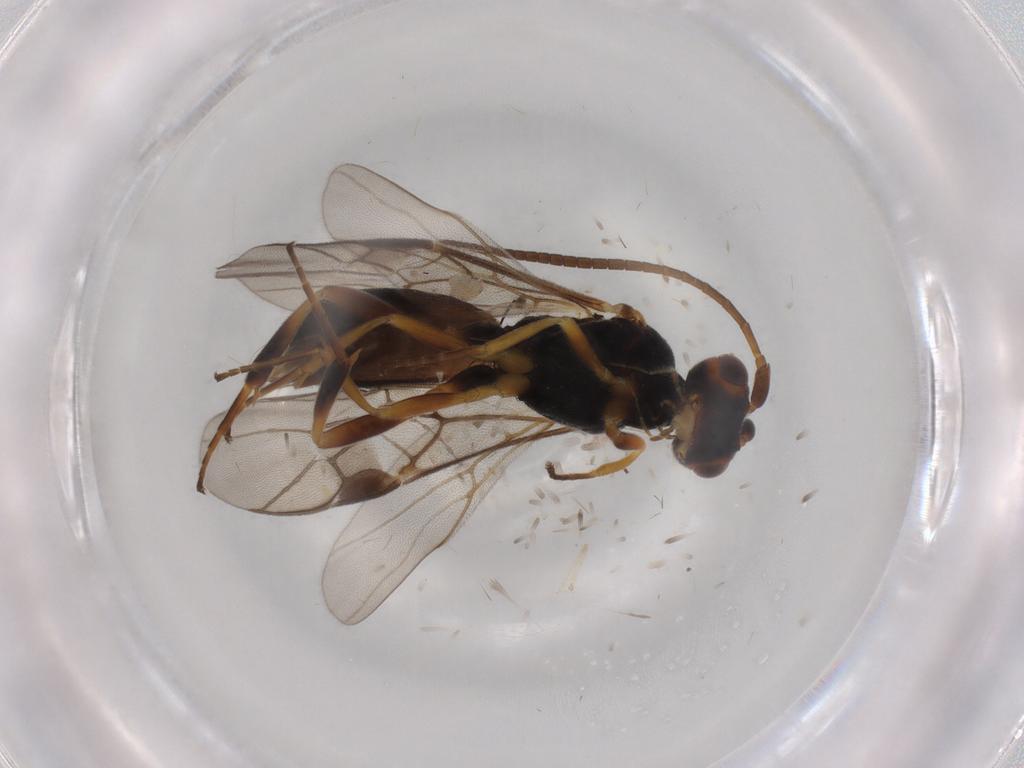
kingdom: Animalia
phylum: Arthropoda
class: Insecta
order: Hymenoptera
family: Braconidae
